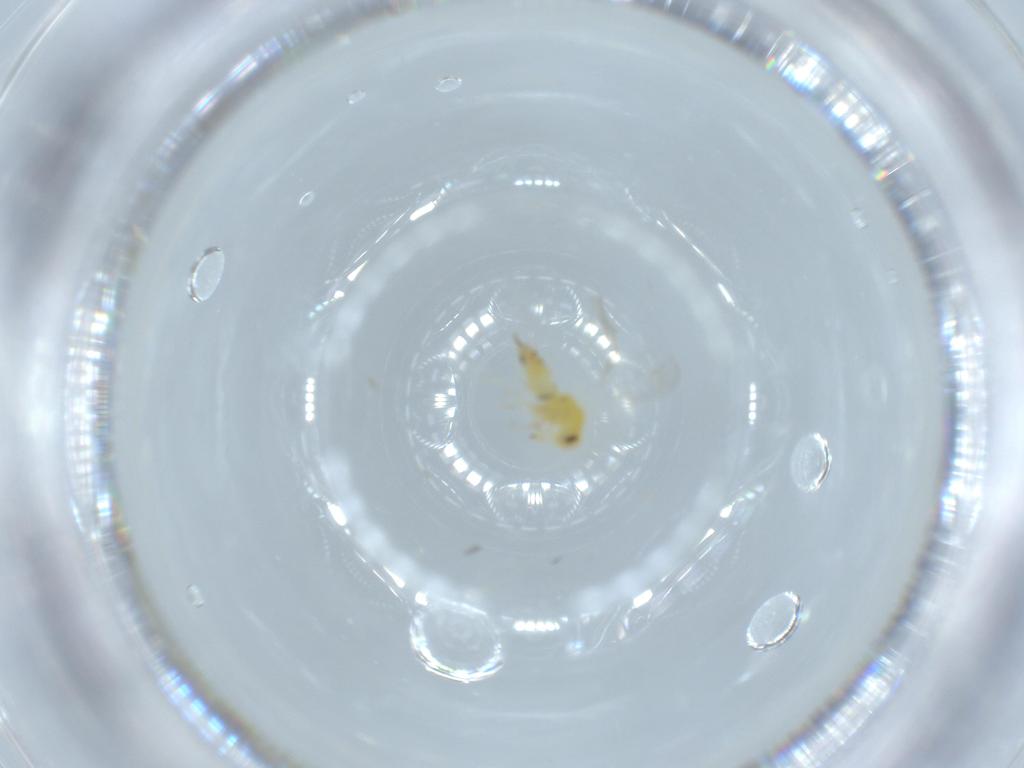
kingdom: Animalia
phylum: Arthropoda
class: Insecta
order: Hemiptera
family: Aleyrodidae
